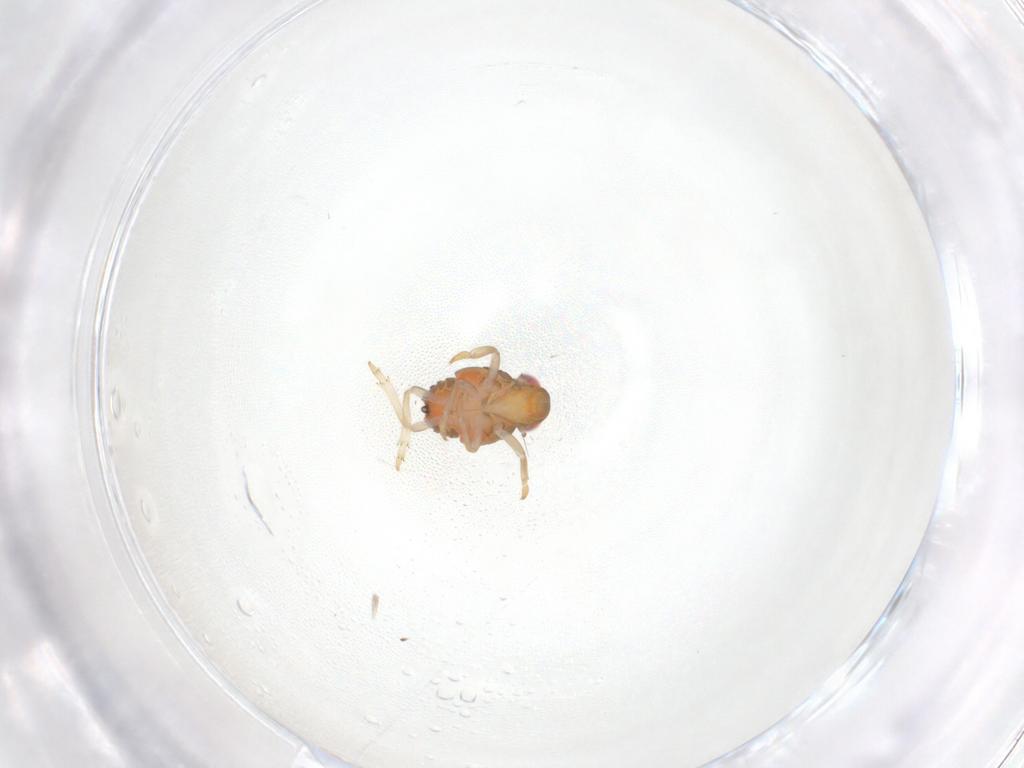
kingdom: Animalia
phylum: Arthropoda
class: Insecta
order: Hemiptera
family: Issidae
